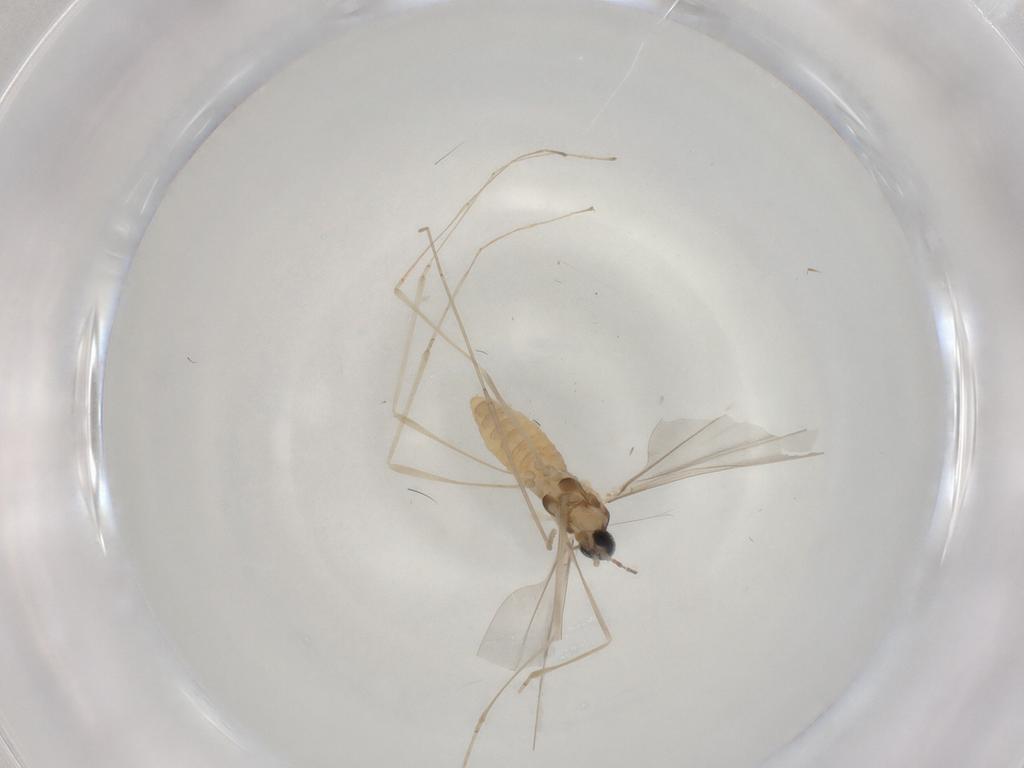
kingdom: Animalia
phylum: Arthropoda
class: Insecta
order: Diptera
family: Cecidomyiidae
